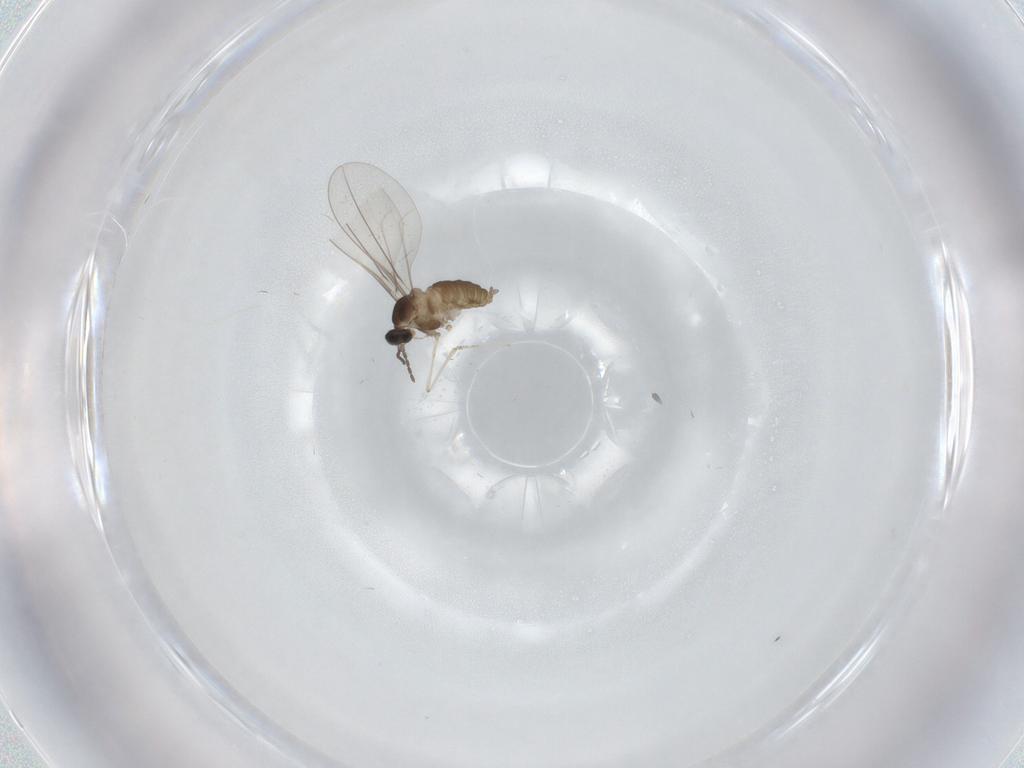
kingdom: Animalia
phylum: Arthropoda
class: Insecta
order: Diptera
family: Cecidomyiidae
